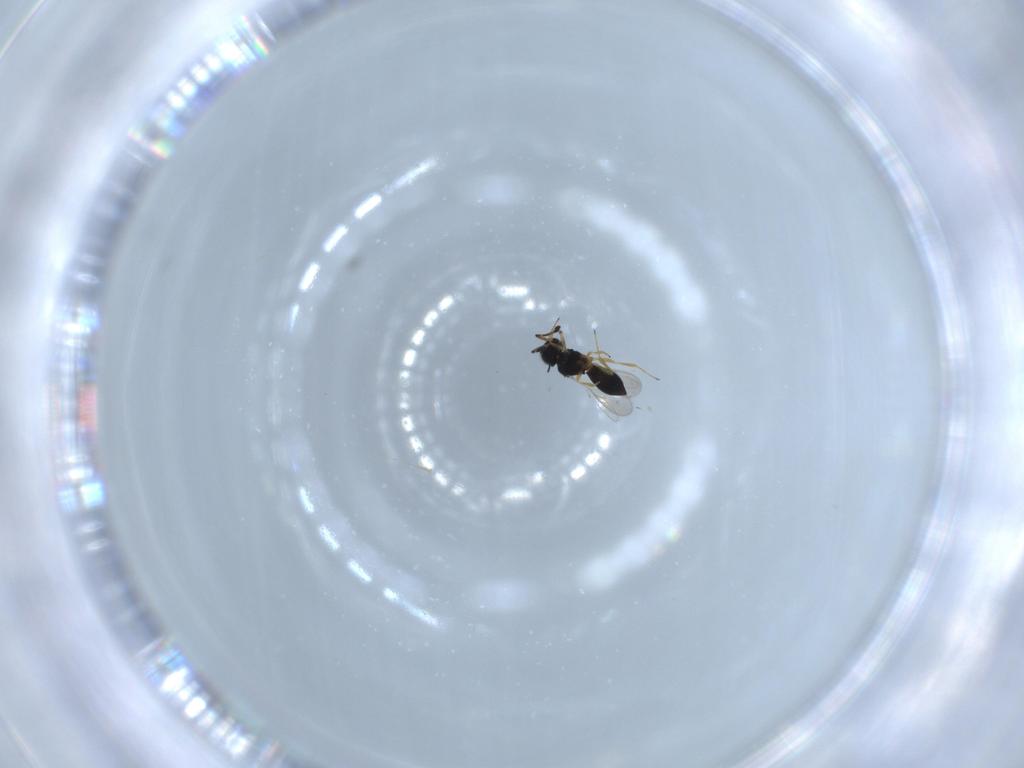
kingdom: Animalia
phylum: Arthropoda
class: Insecta
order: Hymenoptera
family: Scelionidae
